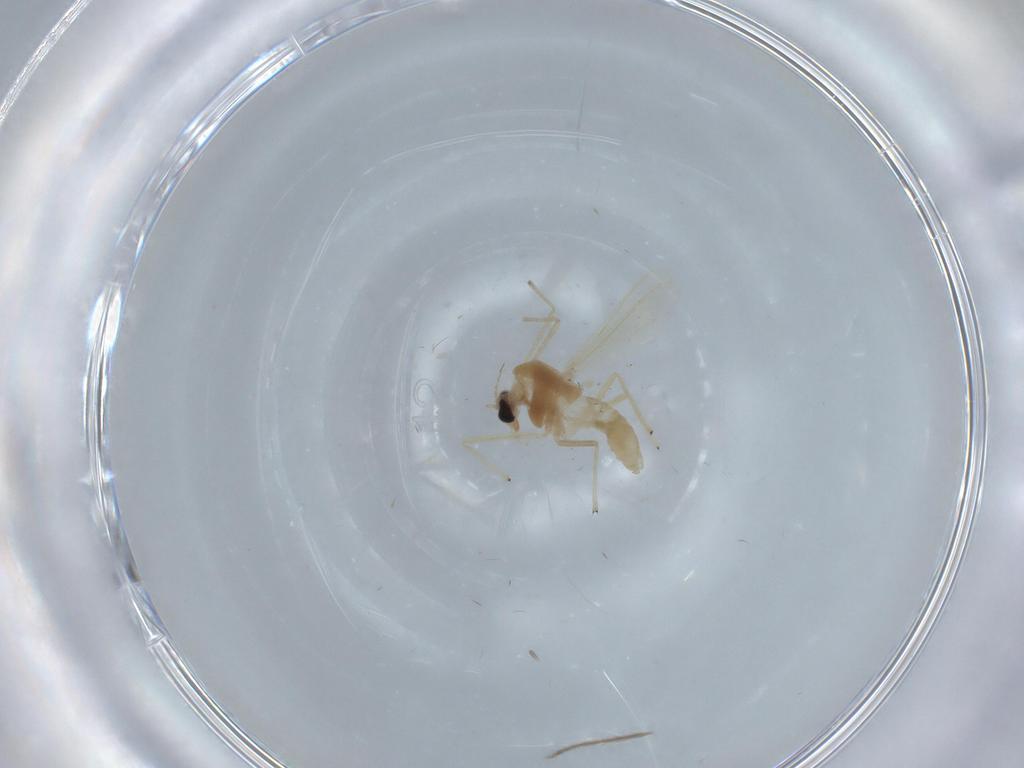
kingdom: Animalia
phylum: Arthropoda
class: Insecta
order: Diptera
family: Chironomidae
